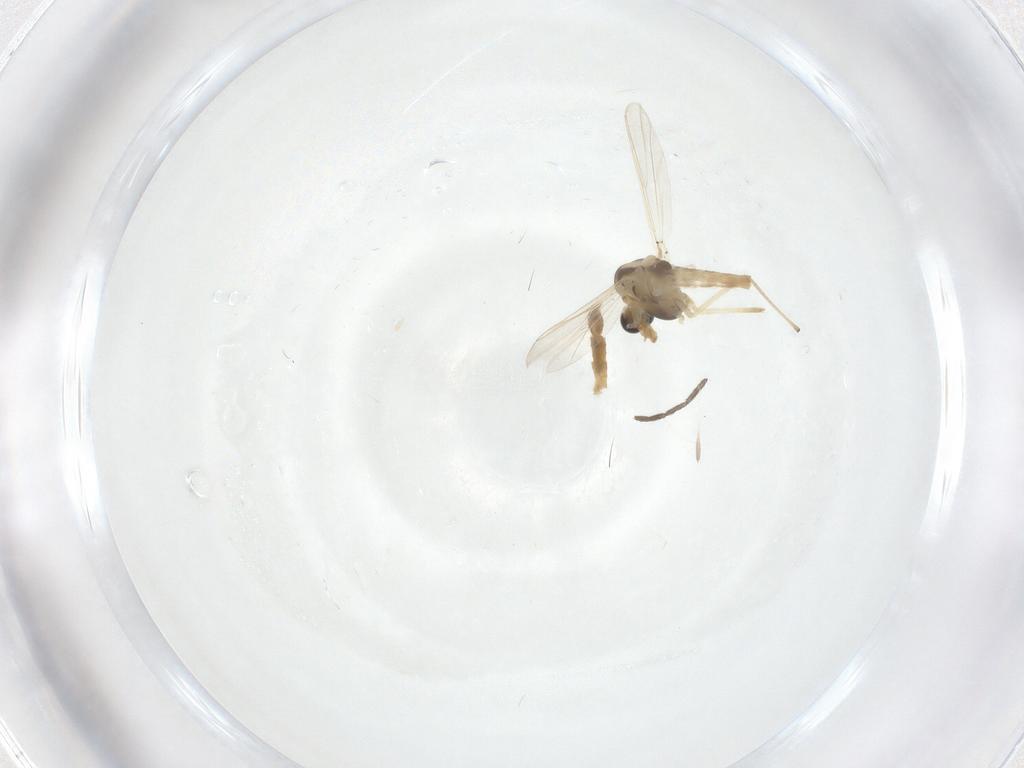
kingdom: Animalia
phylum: Arthropoda
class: Insecta
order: Diptera
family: Chironomidae
